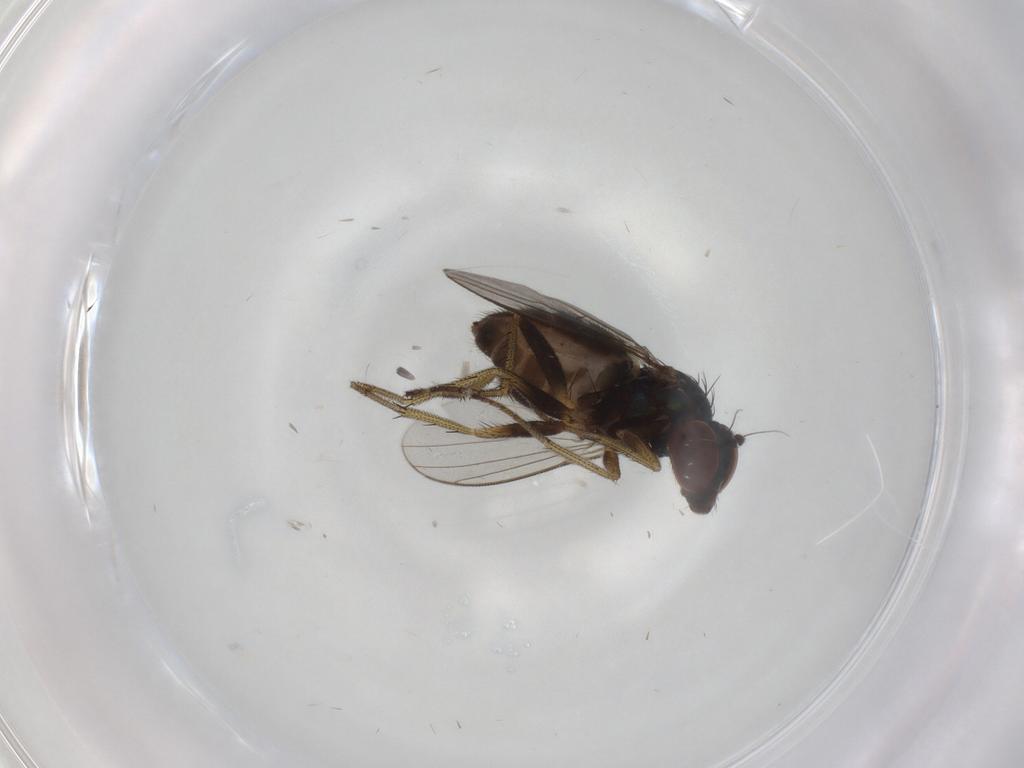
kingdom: Animalia
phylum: Arthropoda
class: Insecta
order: Diptera
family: Dolichopodidae
